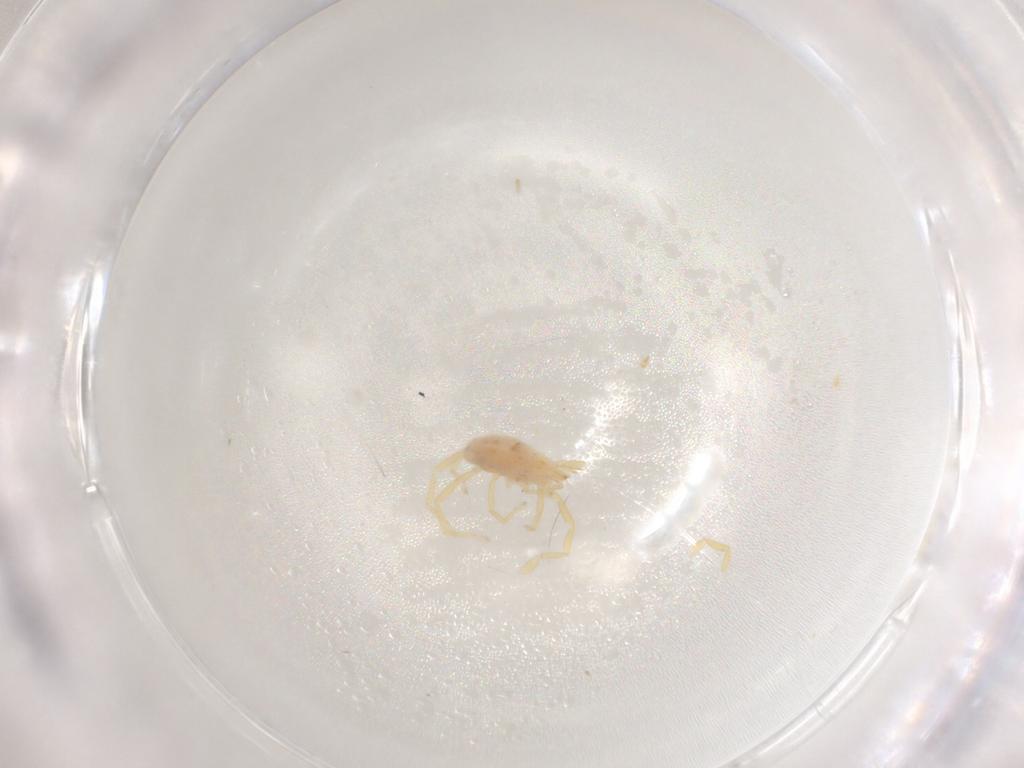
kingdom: Animalia
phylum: Arthropoda
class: Arachnida
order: Trombidiformes
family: Erythraeidae
